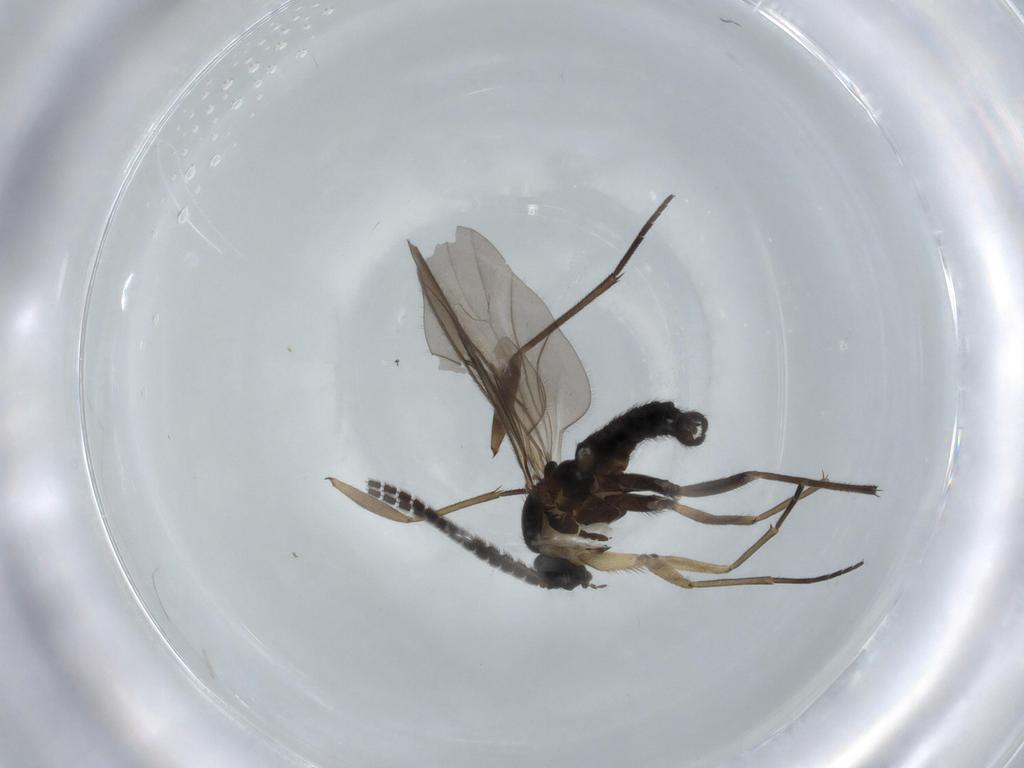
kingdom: Animalia
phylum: Arthropoda
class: Insecta
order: Diptera
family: Sciaridae
